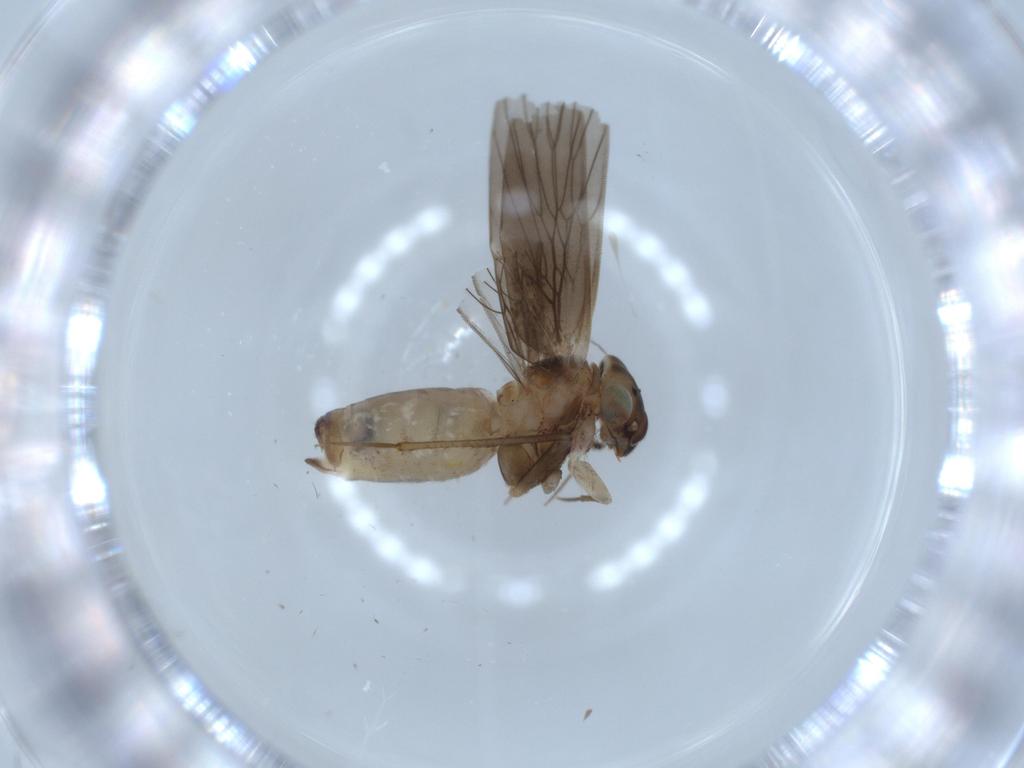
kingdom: Animalia
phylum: Arthropoda
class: Insecta
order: Psocodea
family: Lepidopsocidae
